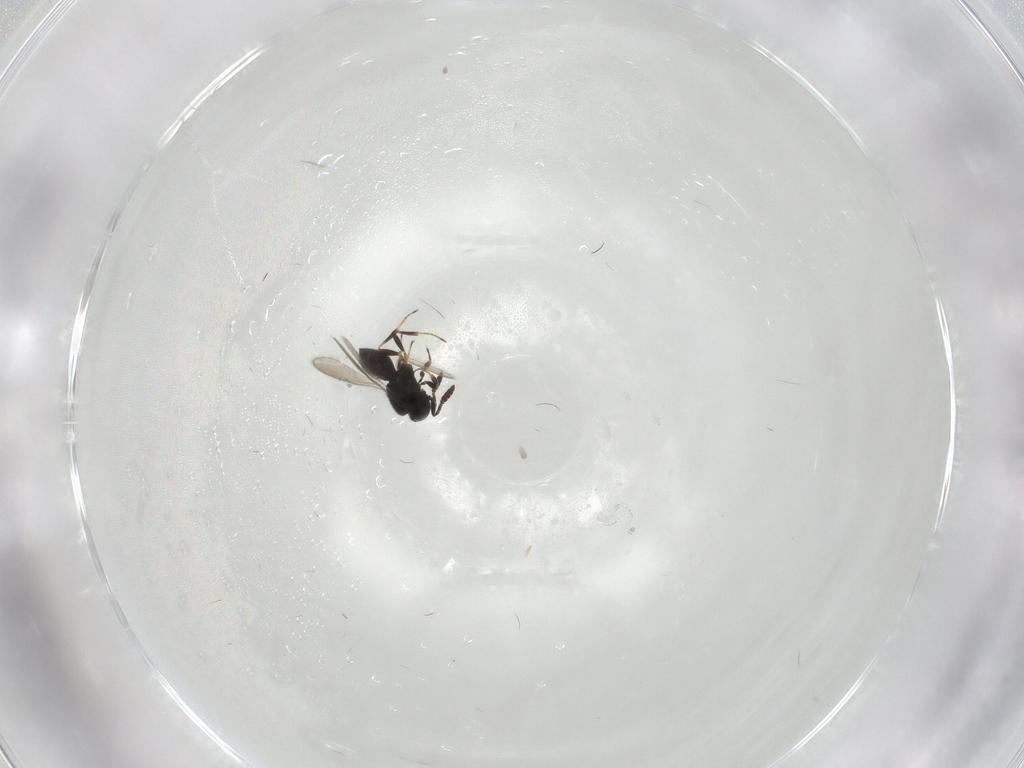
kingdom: Animalia
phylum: Arthropoda
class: Insecta
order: Hymenoptera
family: Scelionidae
